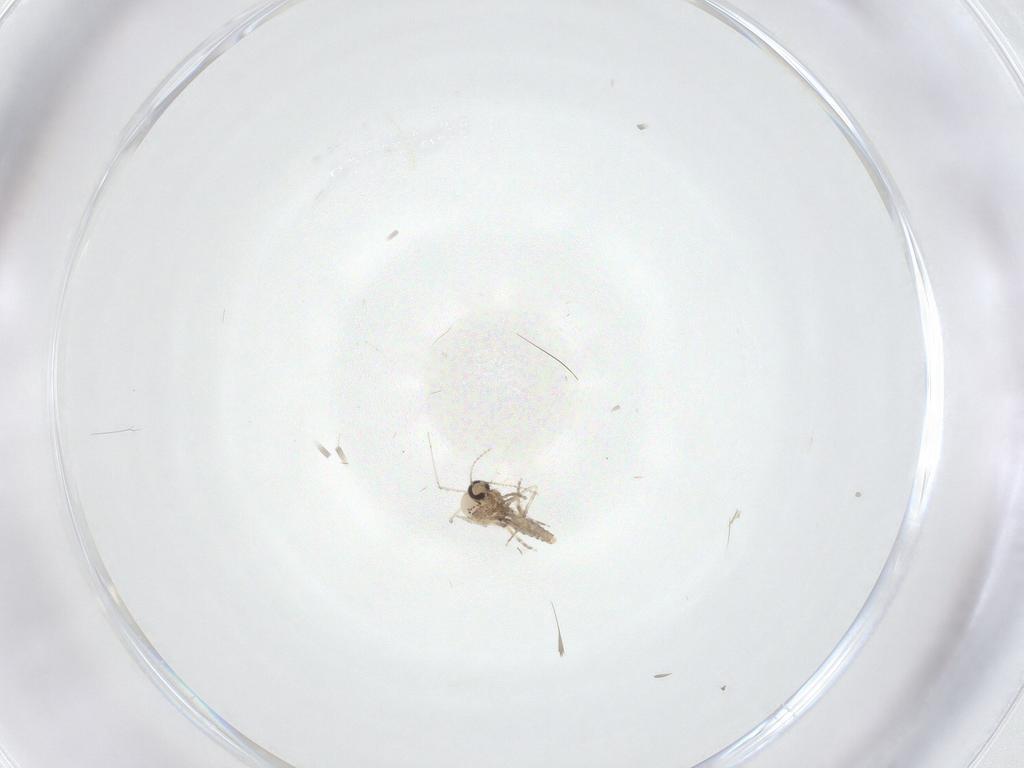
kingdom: Animalia
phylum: Arthropoda
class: Insecta
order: Diptera
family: Ceratopogonidae
